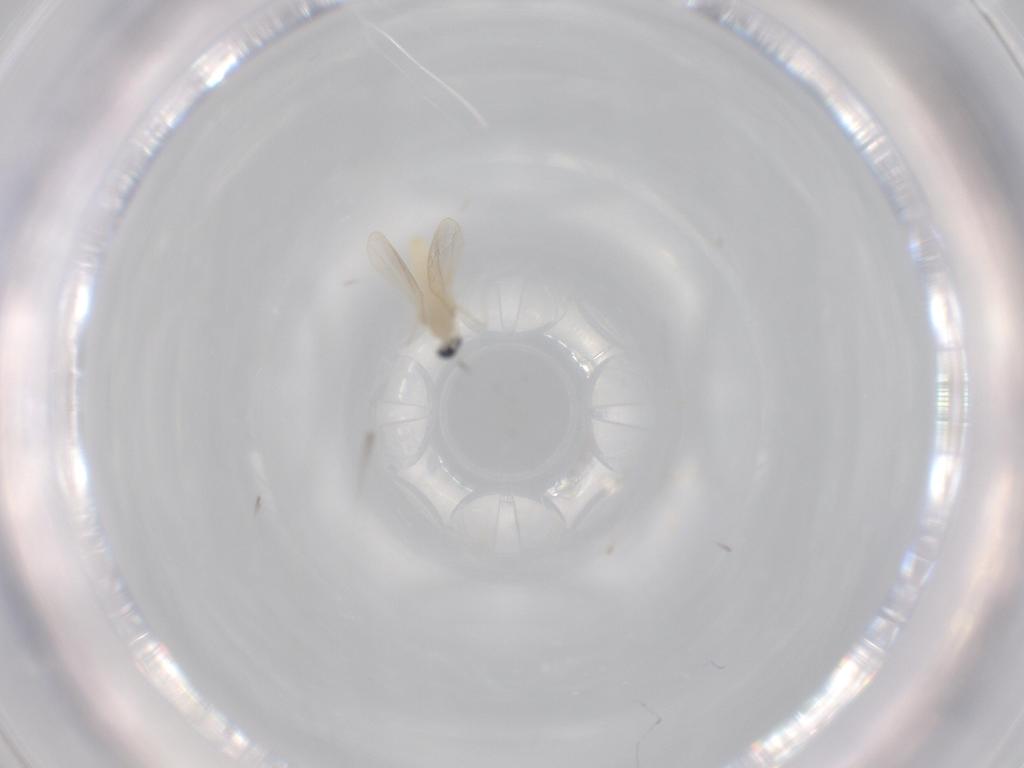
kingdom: Animalia
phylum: Arthropoda
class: Insecta
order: Diptera
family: Cecidomyiidae
